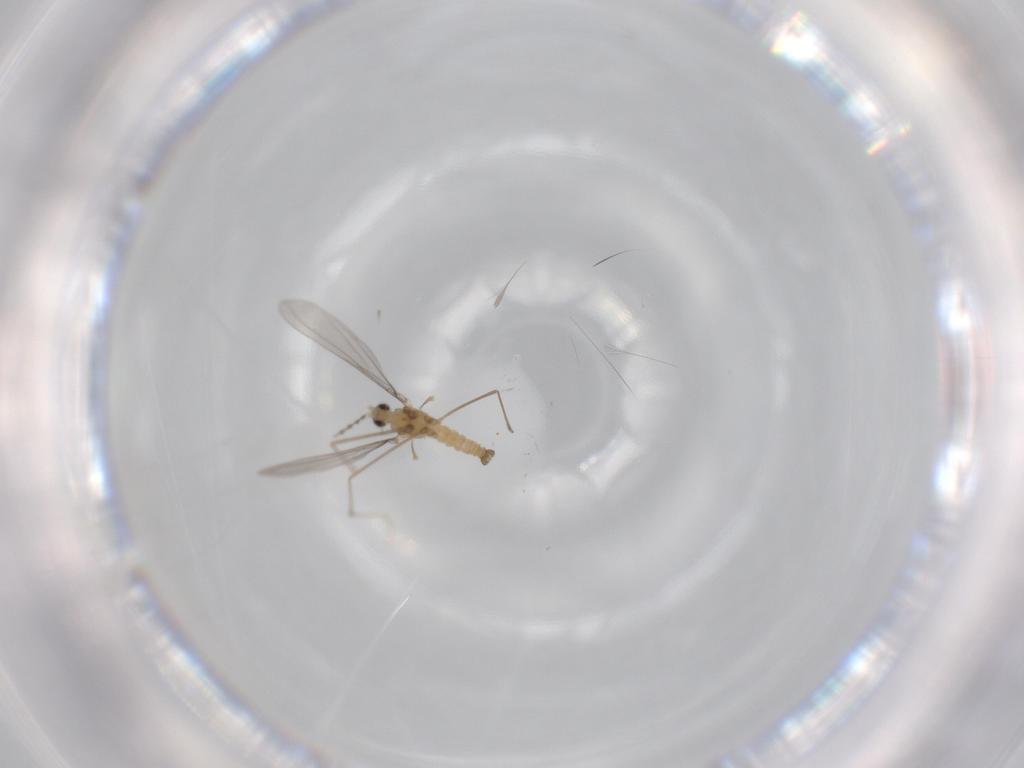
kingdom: Animalia
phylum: Arthropoda
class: Insecta
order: Diptera
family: Cecidomyiidae
